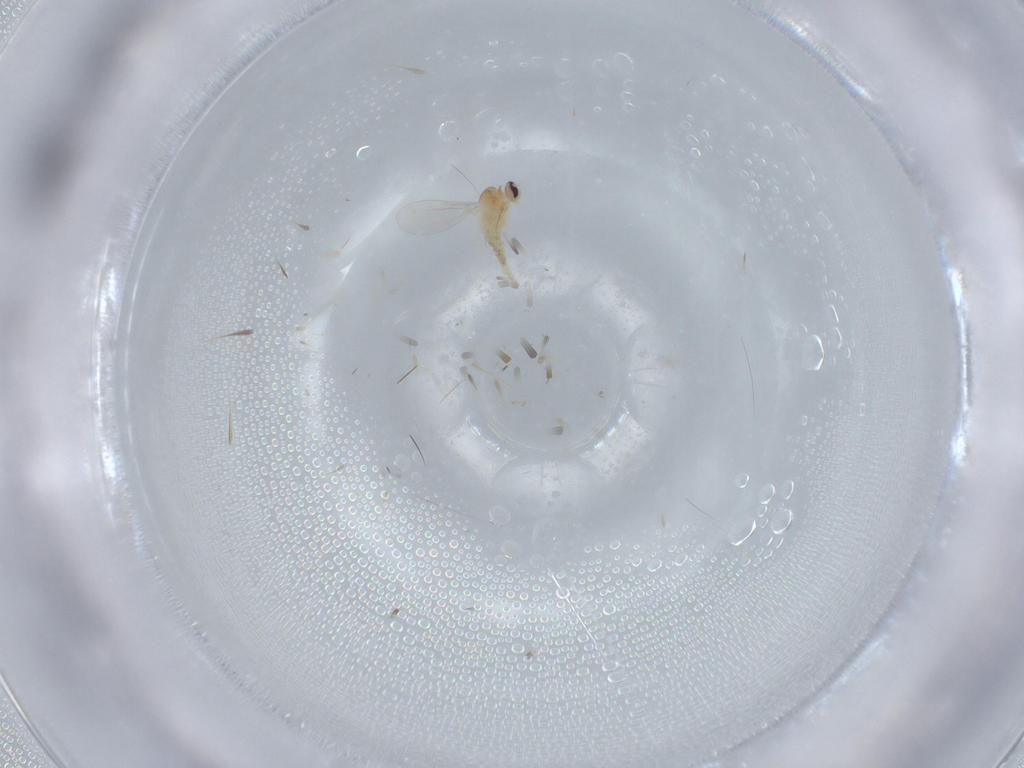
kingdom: Animalia
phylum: Arthropoda
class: Insecta
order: Diptera
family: Cecidomyiidae
